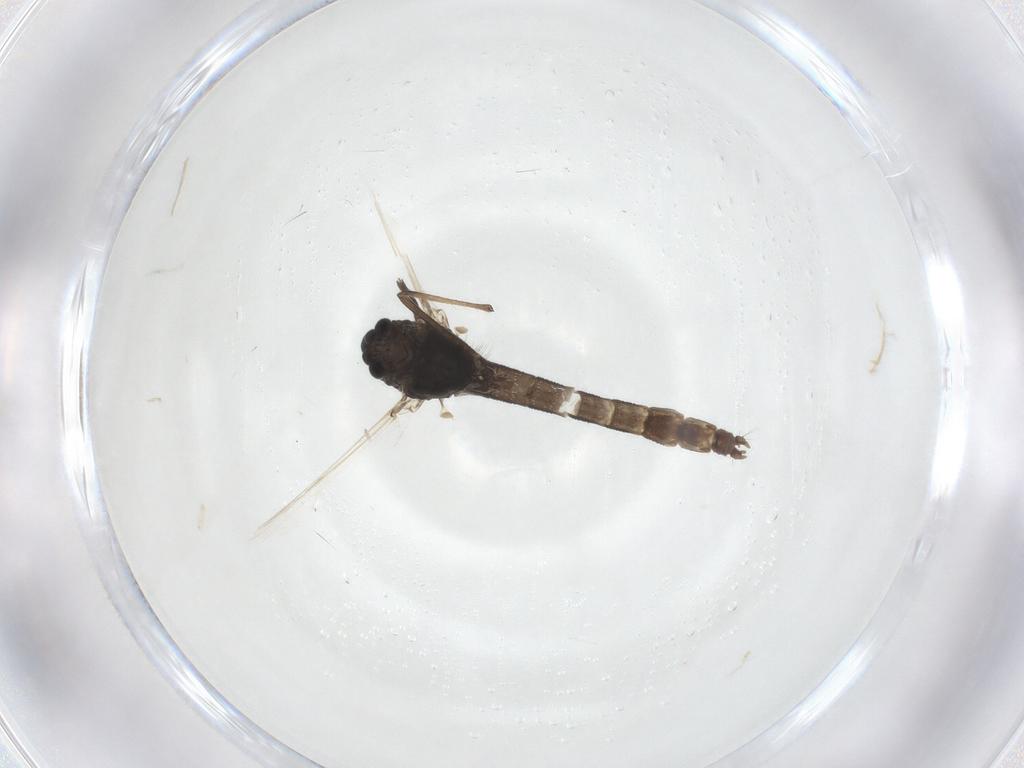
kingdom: Animalia
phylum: Arthropoda
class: Insecta
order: Diptera
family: Chironomidae
